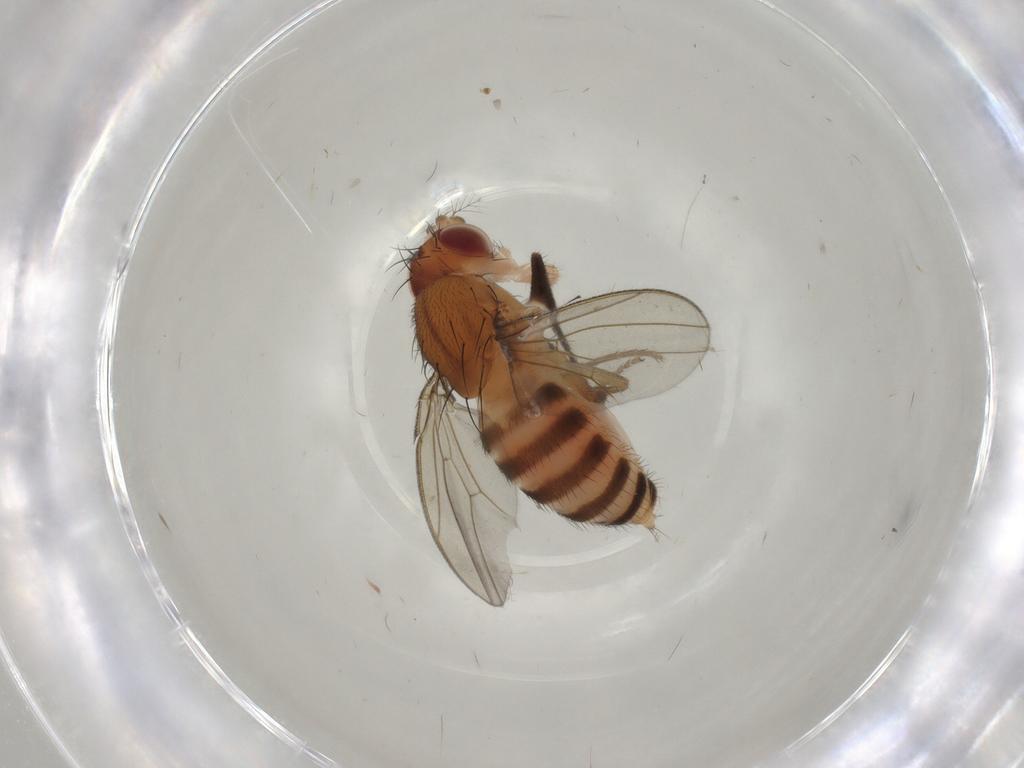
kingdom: Animalia
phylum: Arthropoda
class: Insecta
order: Diptera
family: Drosophilidae
